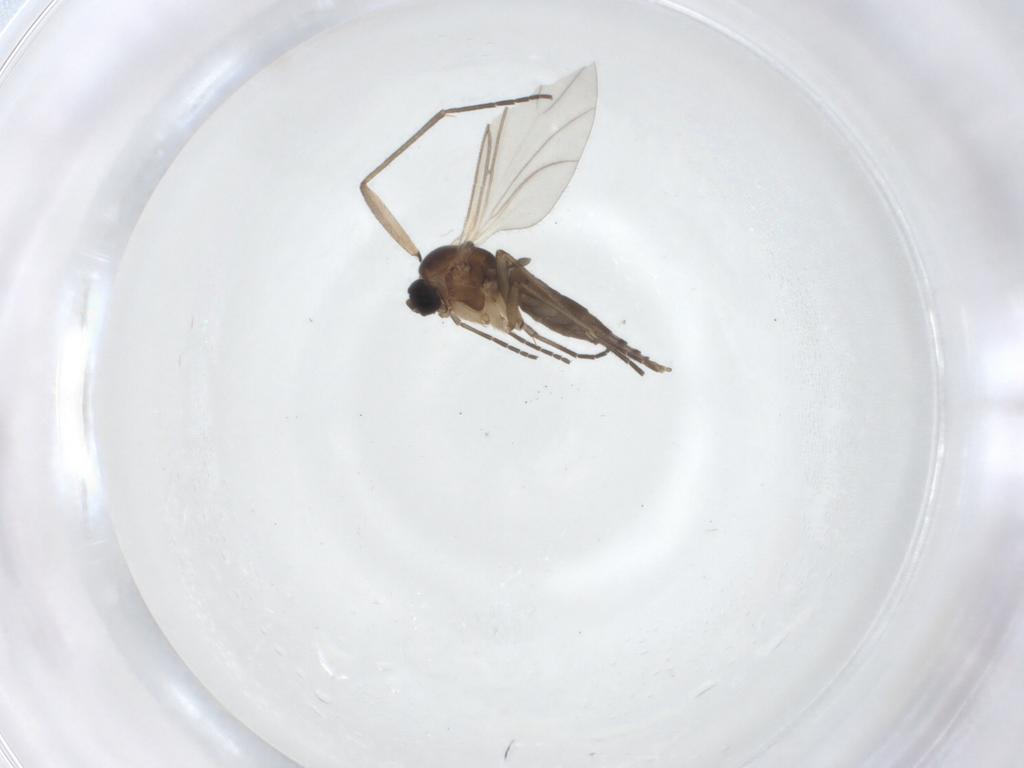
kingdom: Animalia
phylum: Arthropoda
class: Insecta
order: Diptera
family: Sciaridae
